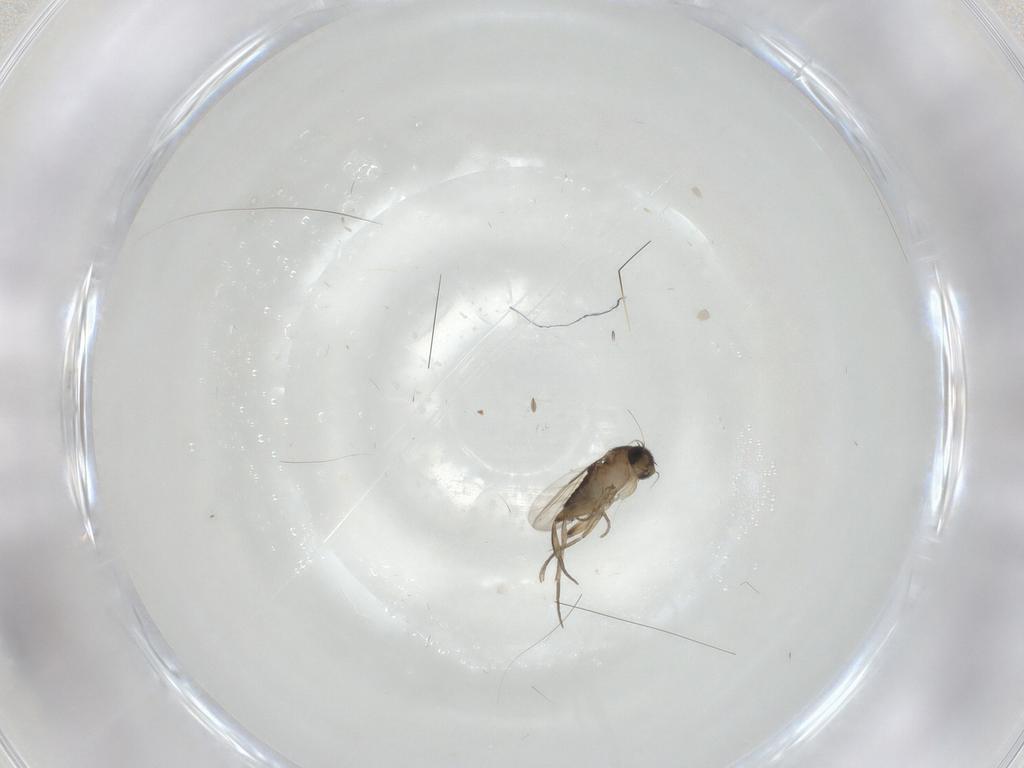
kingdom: Animalia
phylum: Arthropoda
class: Insecta
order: Diptera
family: Phoridae
